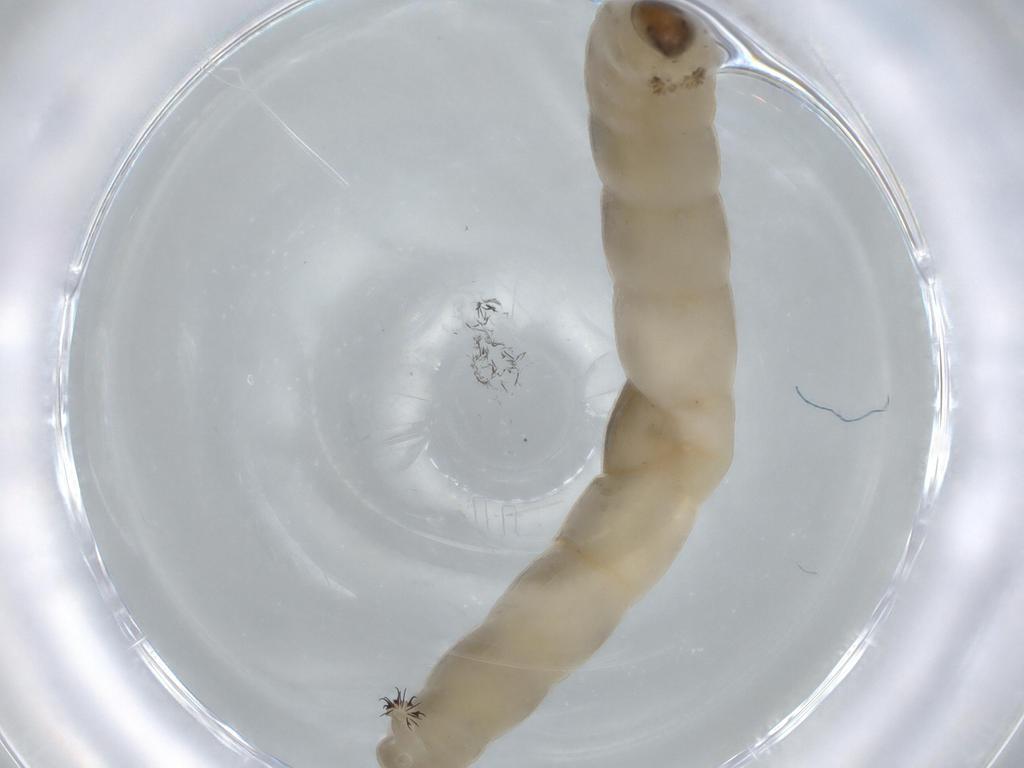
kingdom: Animalia
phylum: Arthropoda
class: Insecta
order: Diptera
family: Chironomidae
